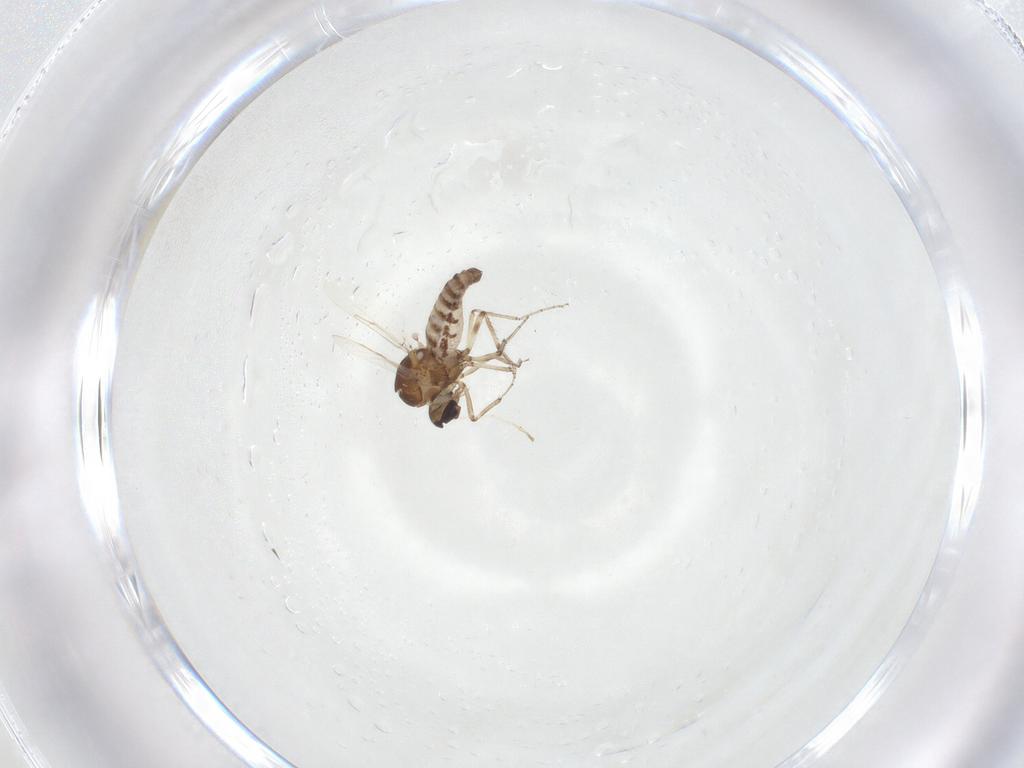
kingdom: Animalia
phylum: Arthropoda
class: Insecta
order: Diptera
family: Ceratopogonidae
